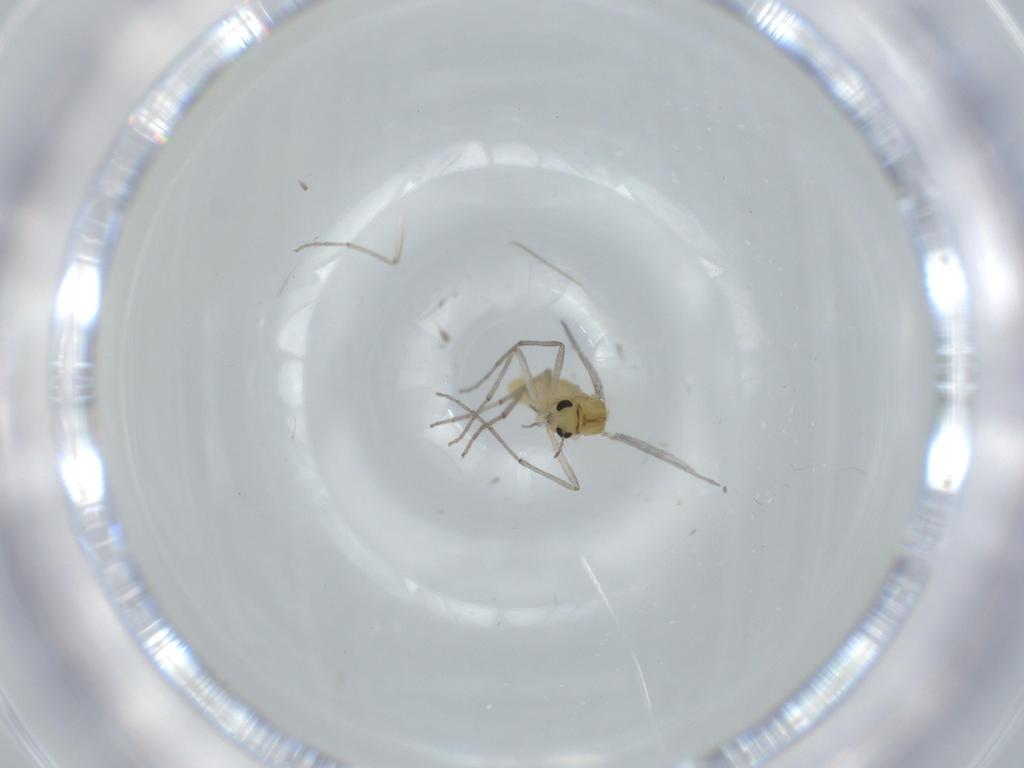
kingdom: Animalia
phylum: Arthropoda
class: Insecta
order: Diptera
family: Chironomidae
